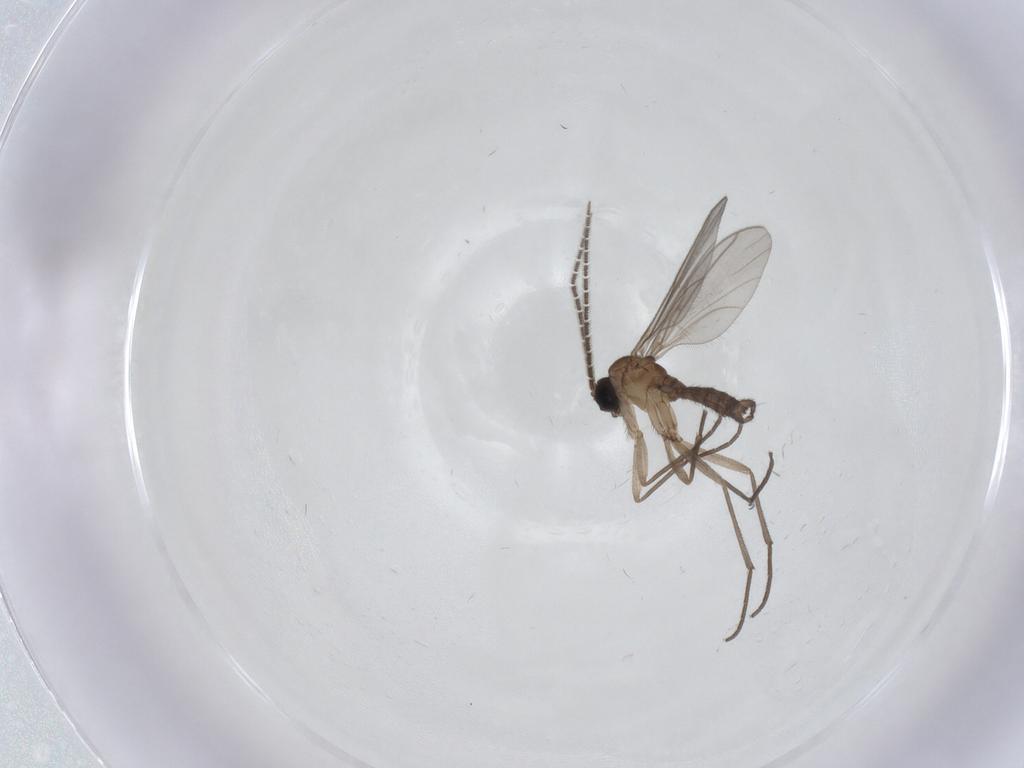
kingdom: Animalia
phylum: Arthropoda
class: Insecta
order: Diptera
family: Sciaridae
